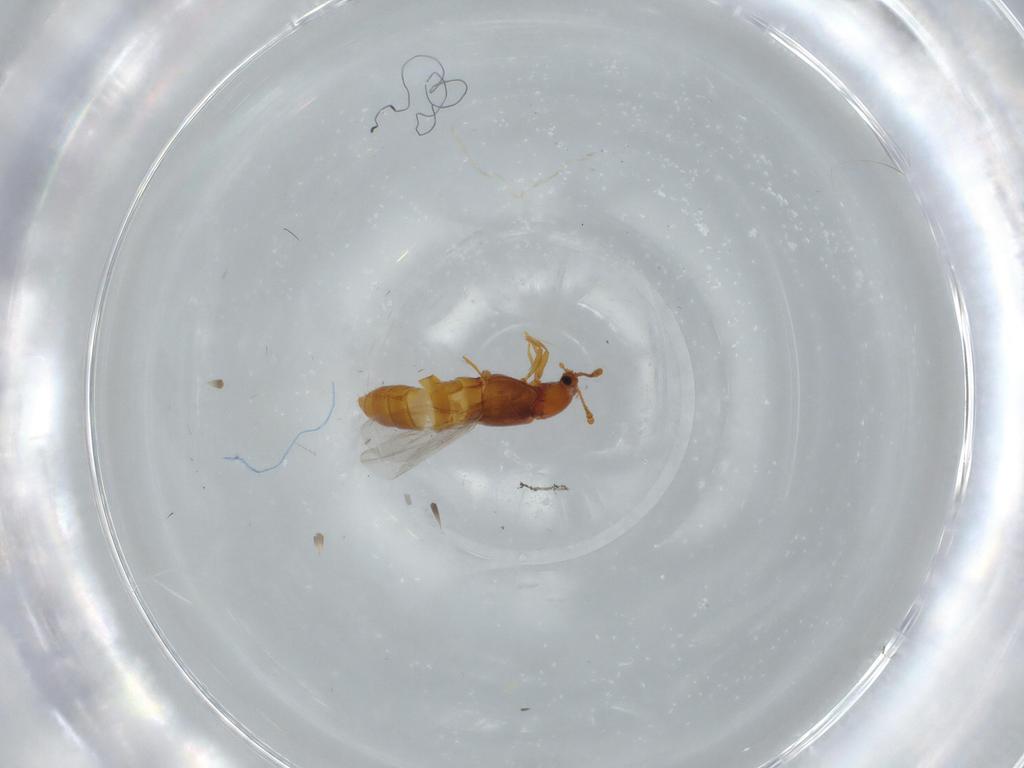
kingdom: Animalia
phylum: Arthropoda
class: Insecta
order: Coleoptera
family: Staphylinidae
